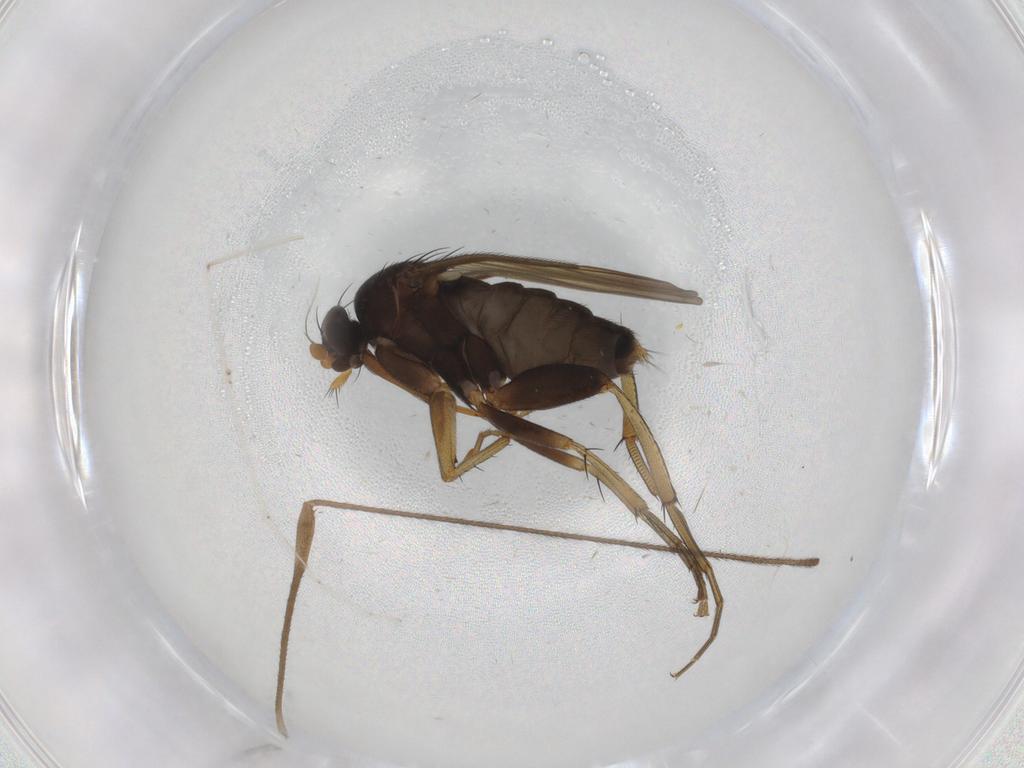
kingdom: Animalia
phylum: Arthropoda
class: Insecta
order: Diptera
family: Phoridae
